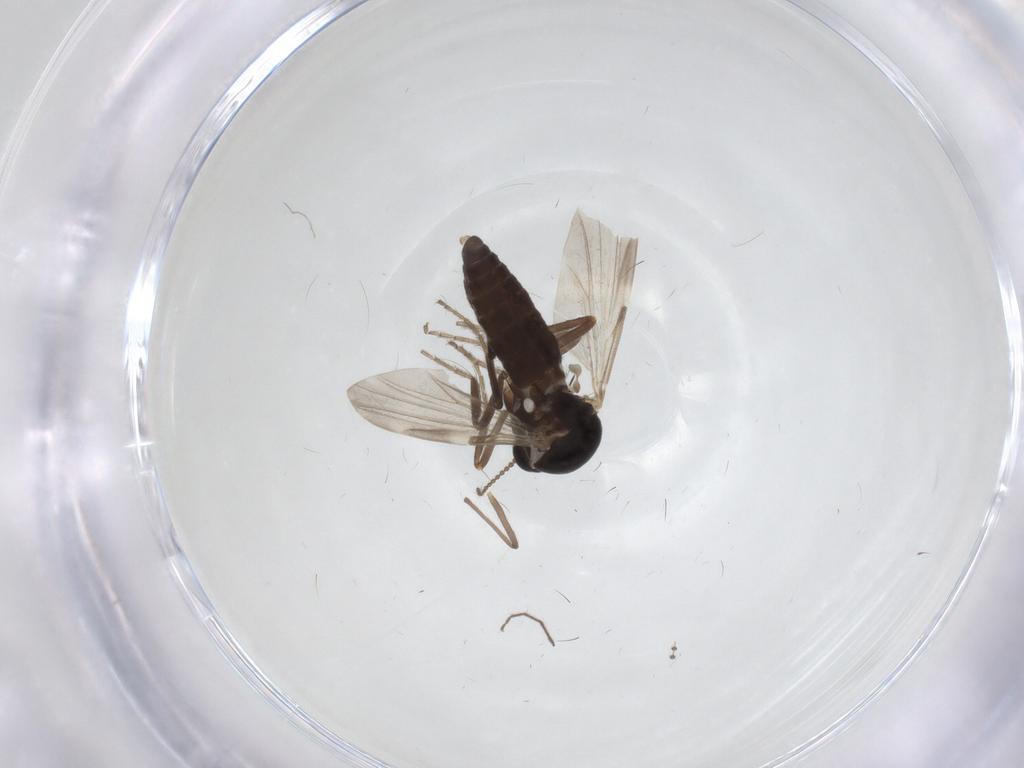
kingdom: Animalia
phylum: Arthropoda
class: Insecta
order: Diptera
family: Ceratopogonidae
